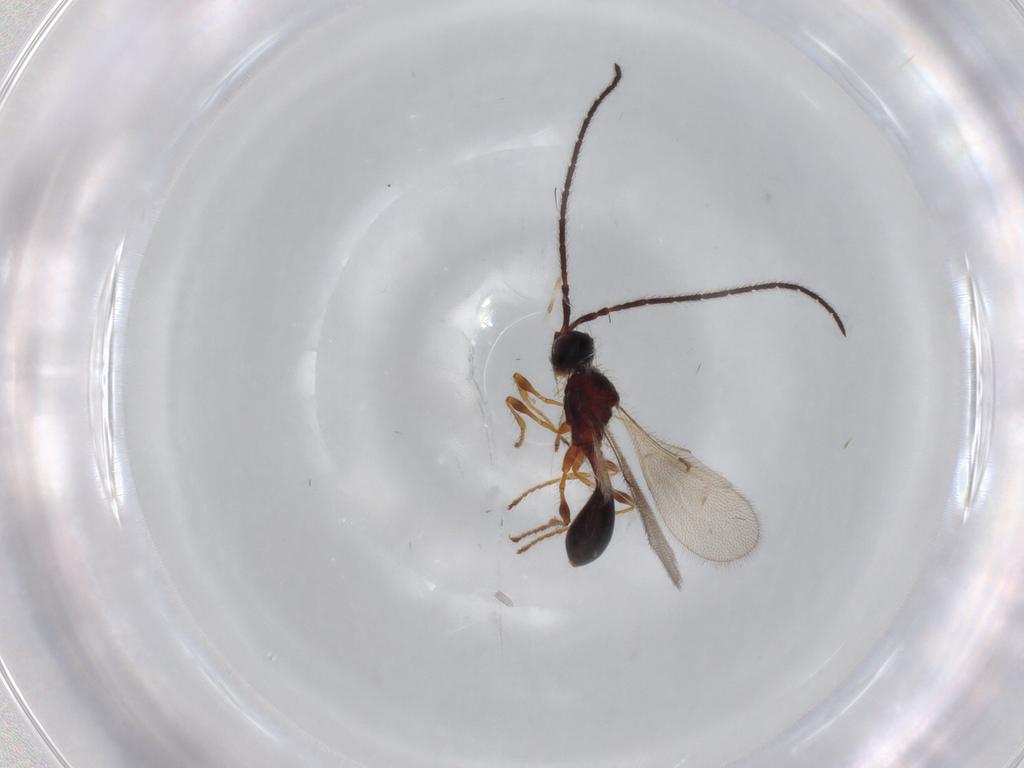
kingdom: Animalia
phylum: Arthropoda
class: Insecta
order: Hymenoptera
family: Diapriidae
